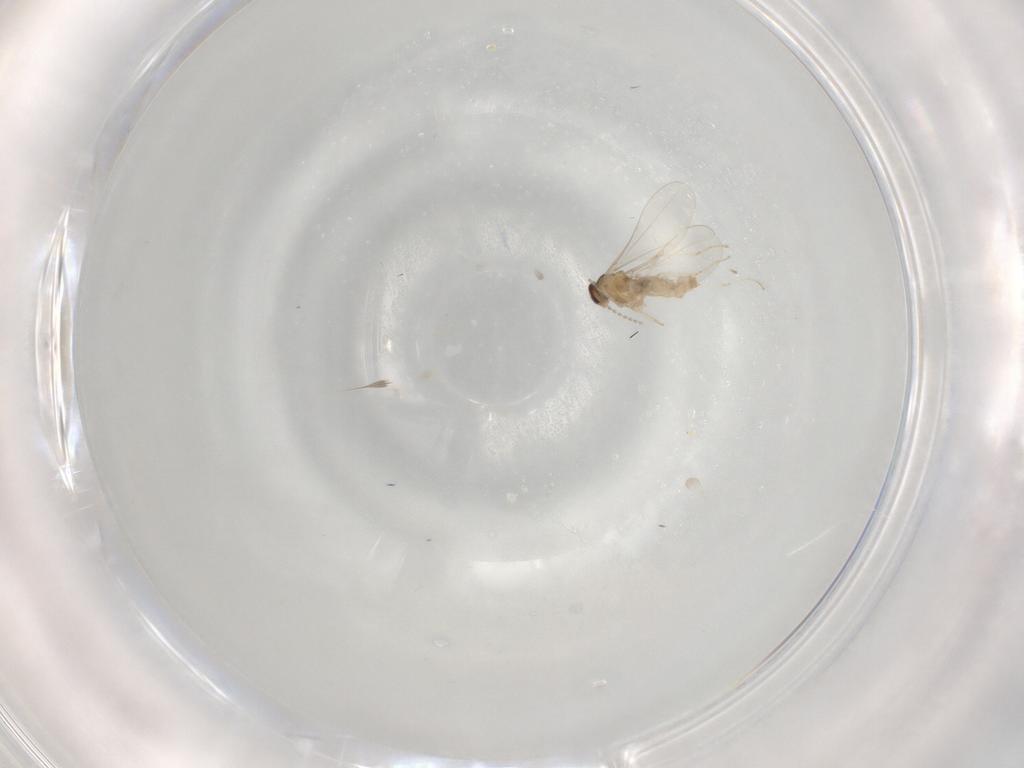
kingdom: Animalia
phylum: Arthropoda
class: Insecta
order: Diptera
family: Cecidomyiidae
